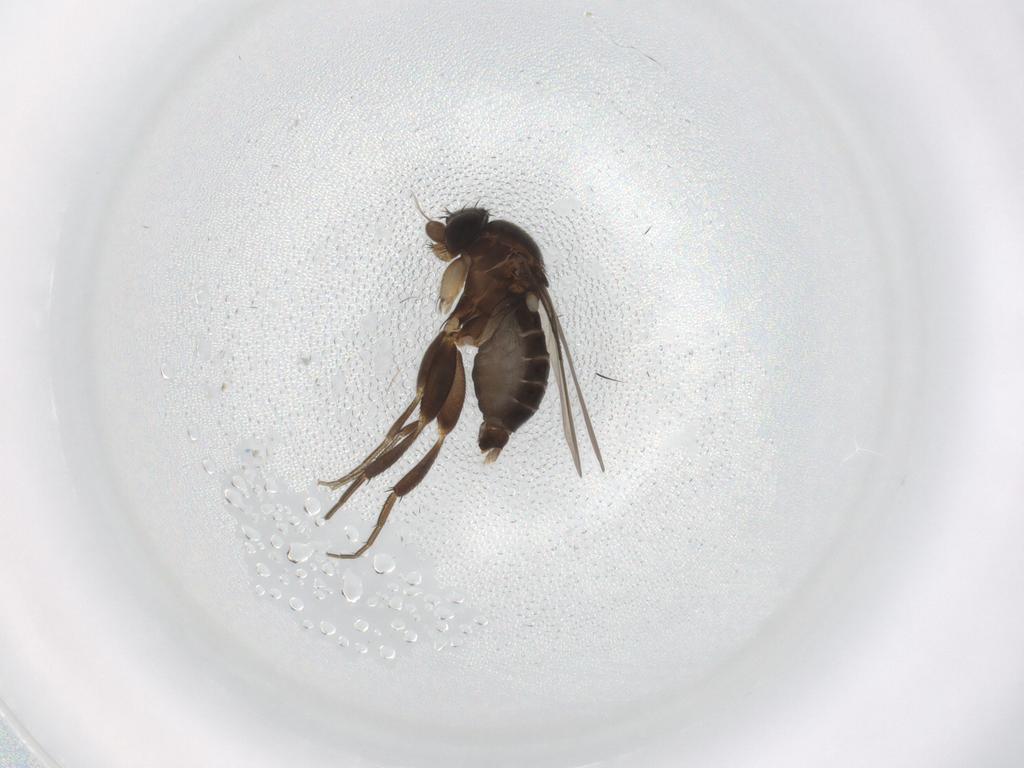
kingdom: Animalia
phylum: Arthropoda
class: Insecta
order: Diptera
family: Phoridae
